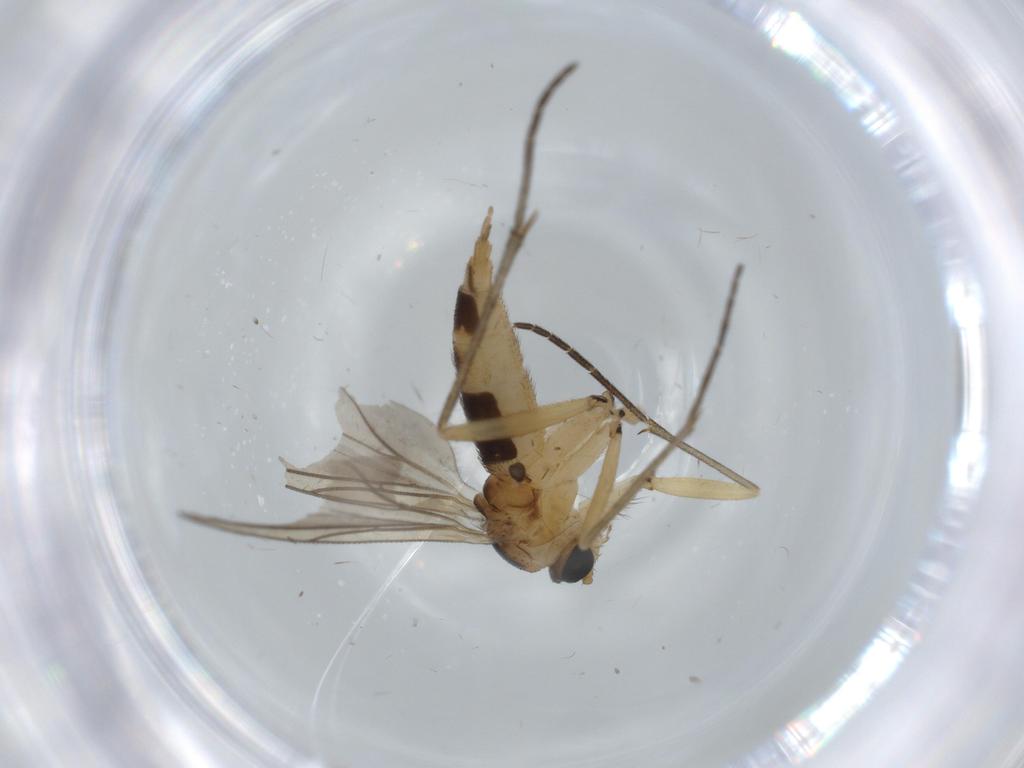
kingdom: Animalia
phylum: Arthropoda
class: Insecta
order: Diptera
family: Sciaridae
